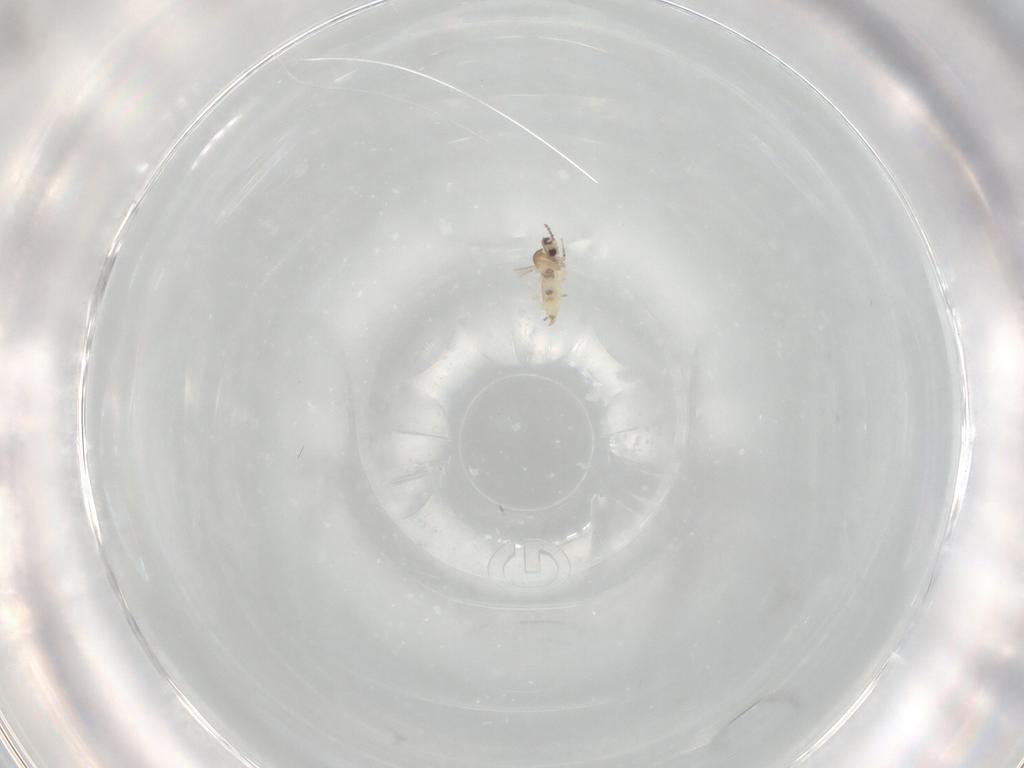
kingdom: Animalia
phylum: Arthropoda
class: Insecta
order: Diptera
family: Cecidomyiidae
